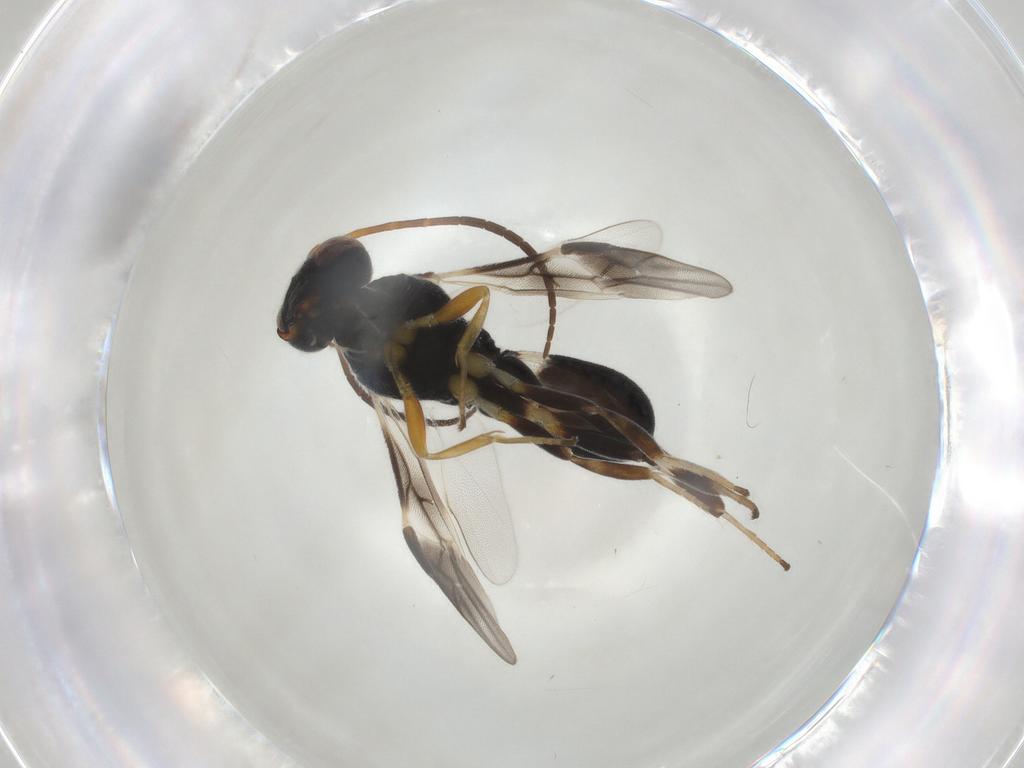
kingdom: Animalia
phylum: Arthropoda
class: Insecta
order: Hymenoptera
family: Braconidae
